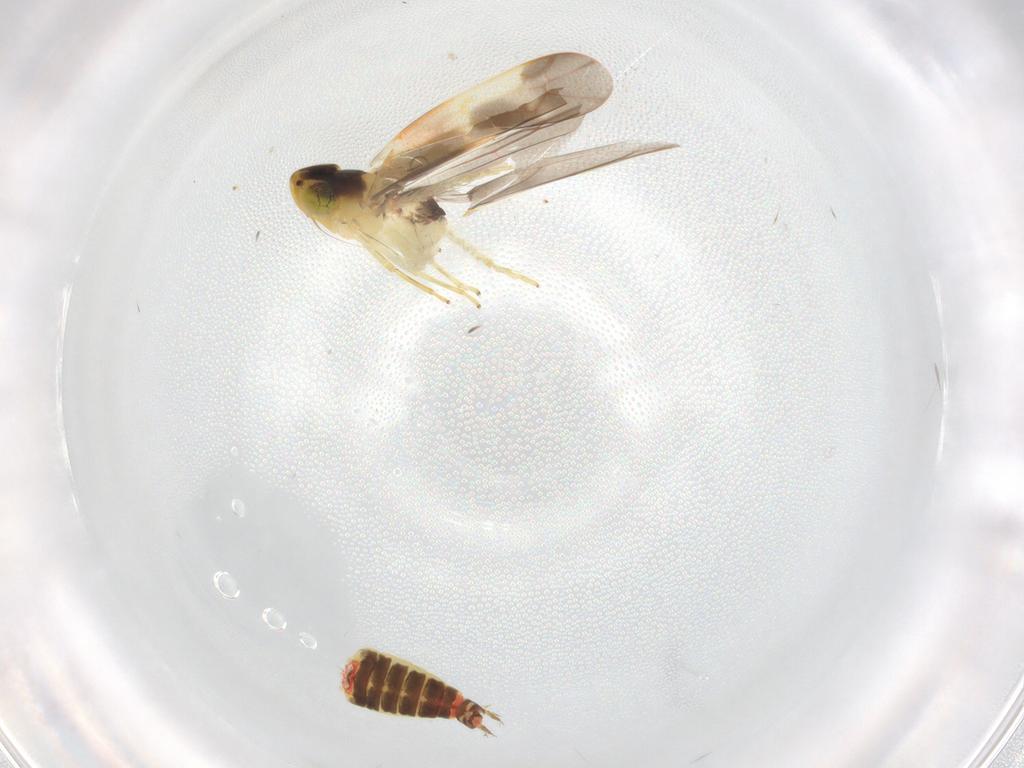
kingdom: Animalia
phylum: Arthropoda
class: Insecta
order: Hemiptera
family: Cicadellidae
